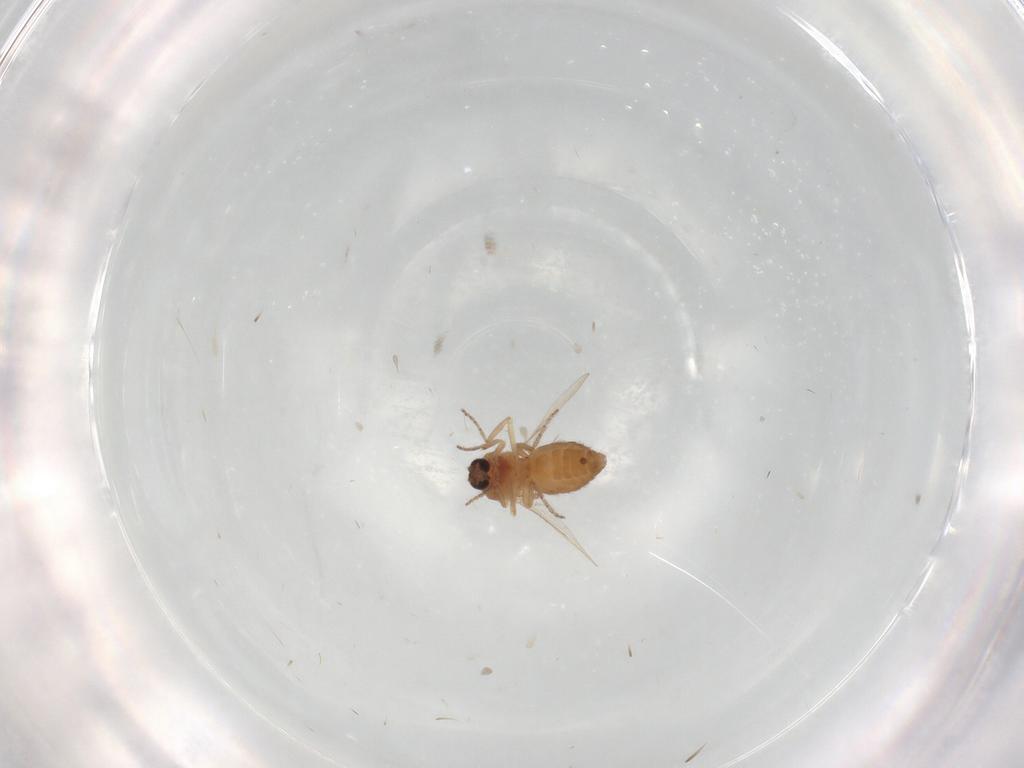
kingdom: Animalia
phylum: Arthropoda
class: Insecta
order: Diptera
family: Ceratopogonidae
